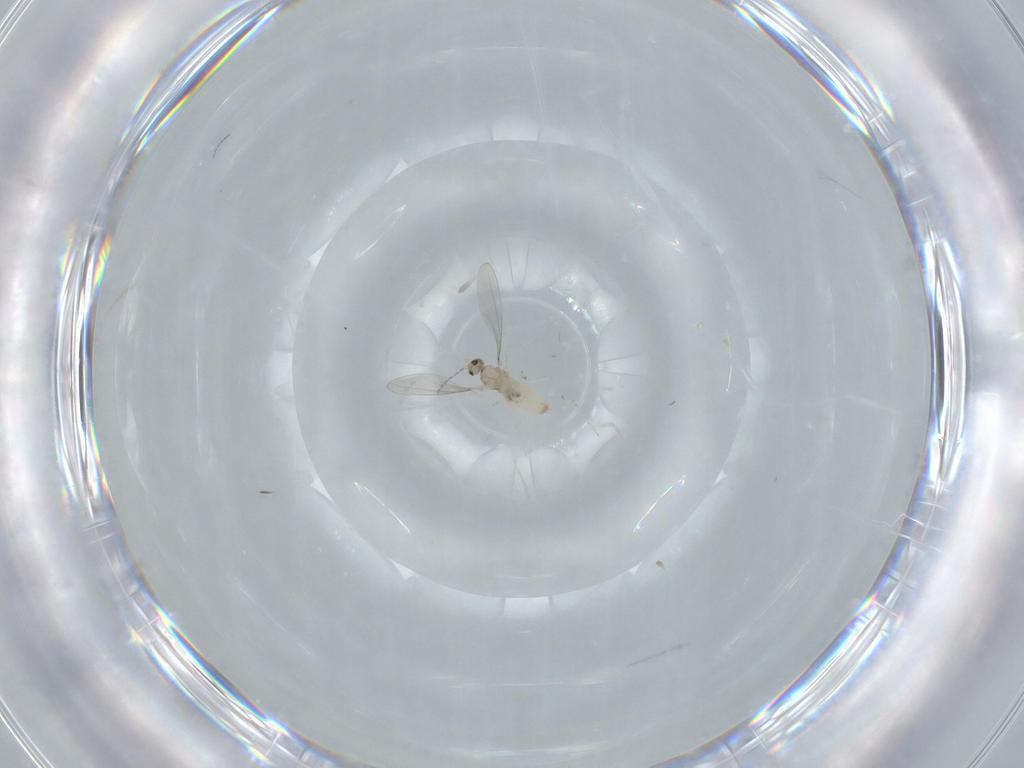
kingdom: Animalia
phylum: Arthropoda
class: Insecta
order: Diptera
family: Cecidomyiidae
